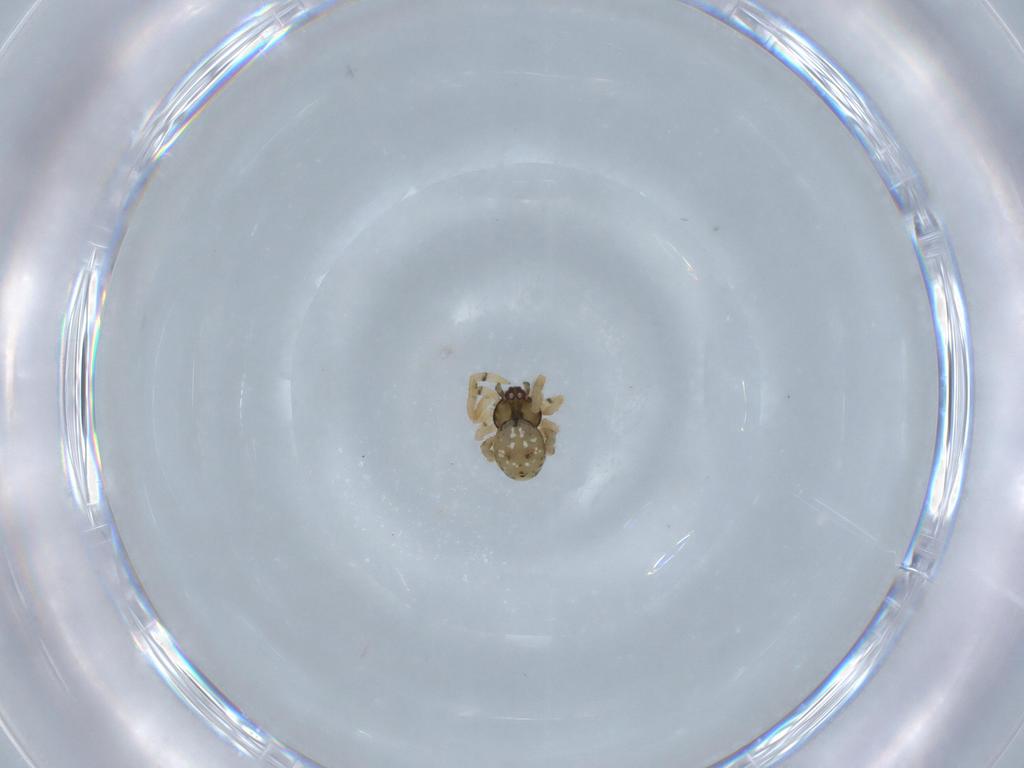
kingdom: Animalia
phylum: Arthropoda
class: Arachnida
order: Araneae
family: Theridiidae
